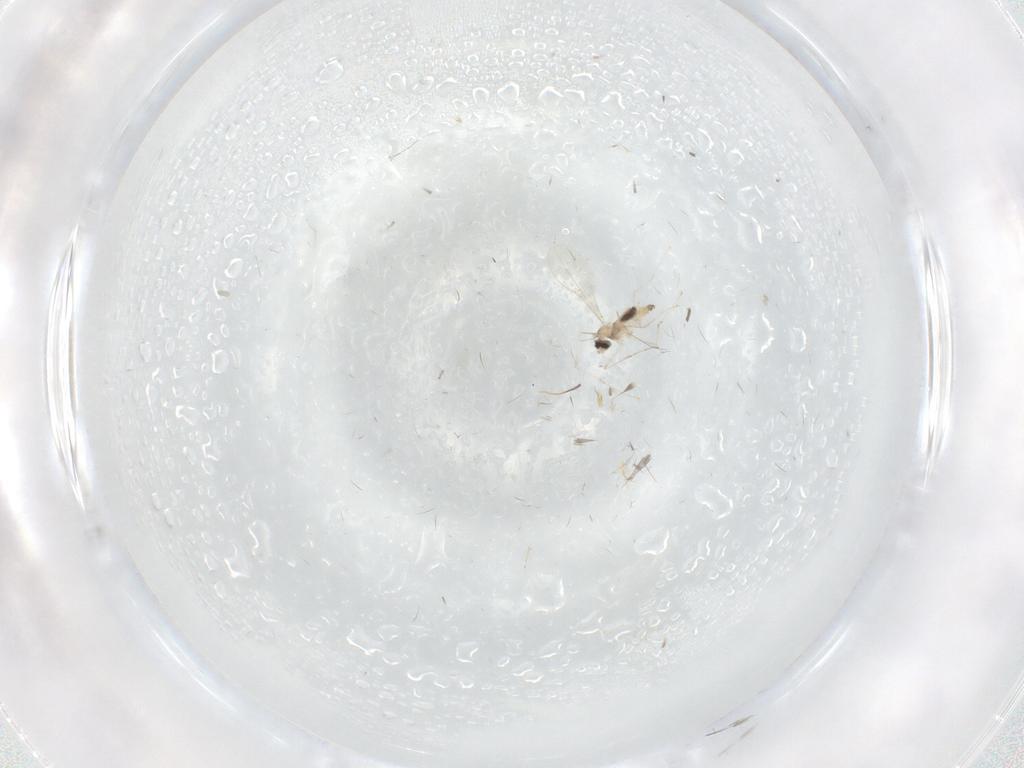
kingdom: Animalia
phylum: Arthropoda
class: Insecta
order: Diptera
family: Sciaridae
